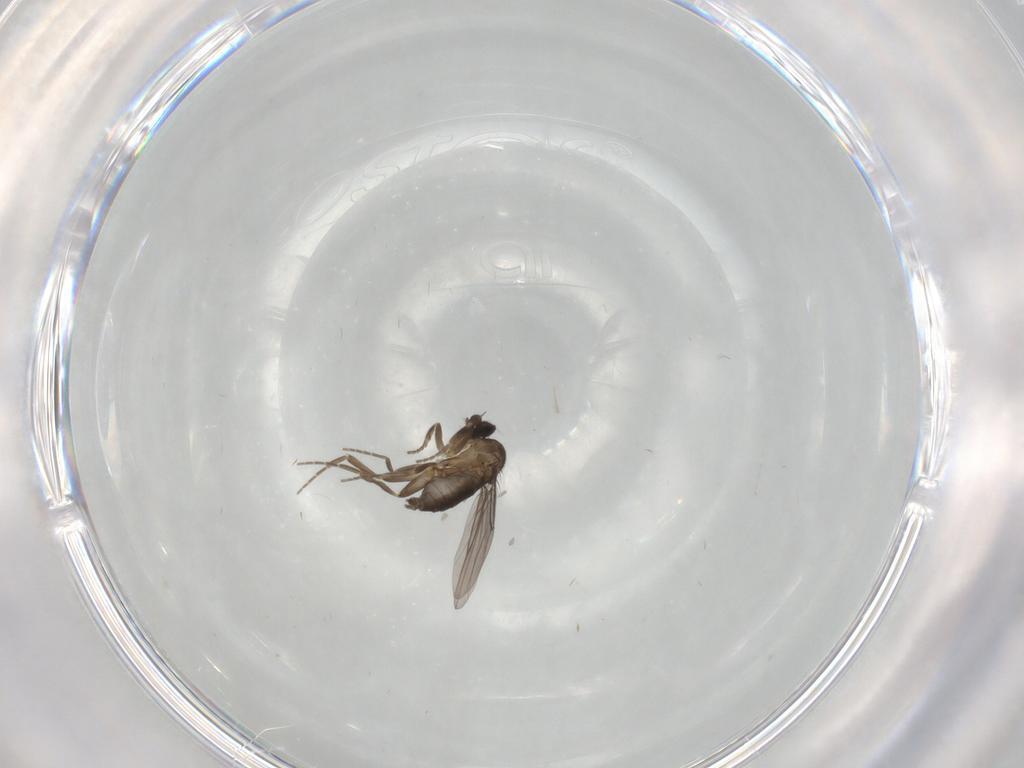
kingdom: Animalia
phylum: Arthropoda
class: Insecta
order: Diptera
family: Phoridae
